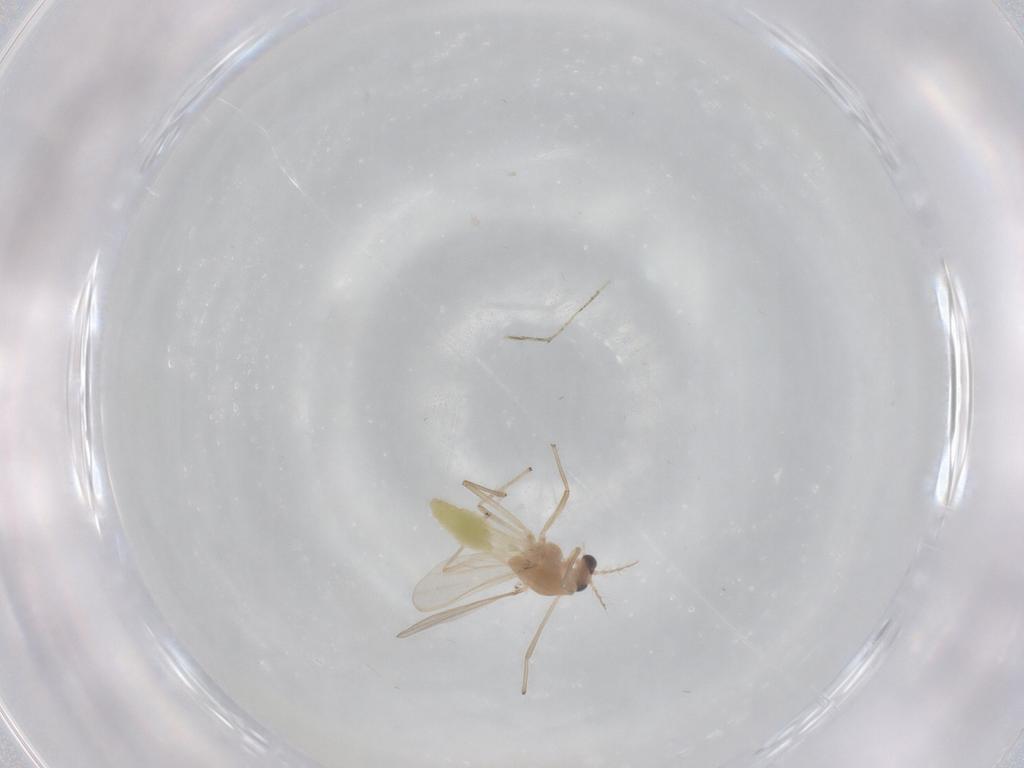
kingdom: Animalia
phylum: Arthropoda
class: Insecta
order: Diptera
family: Chironomidae
